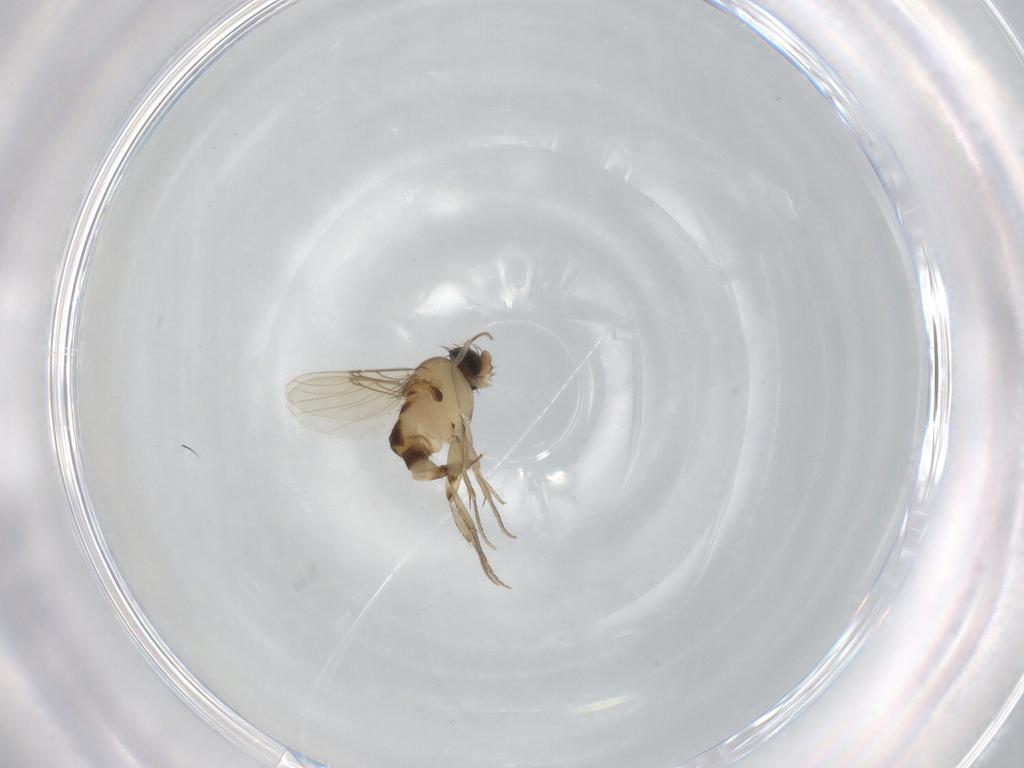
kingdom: Animalia
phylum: Arthropoda
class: Insecta
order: Diptera
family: Phoridae
